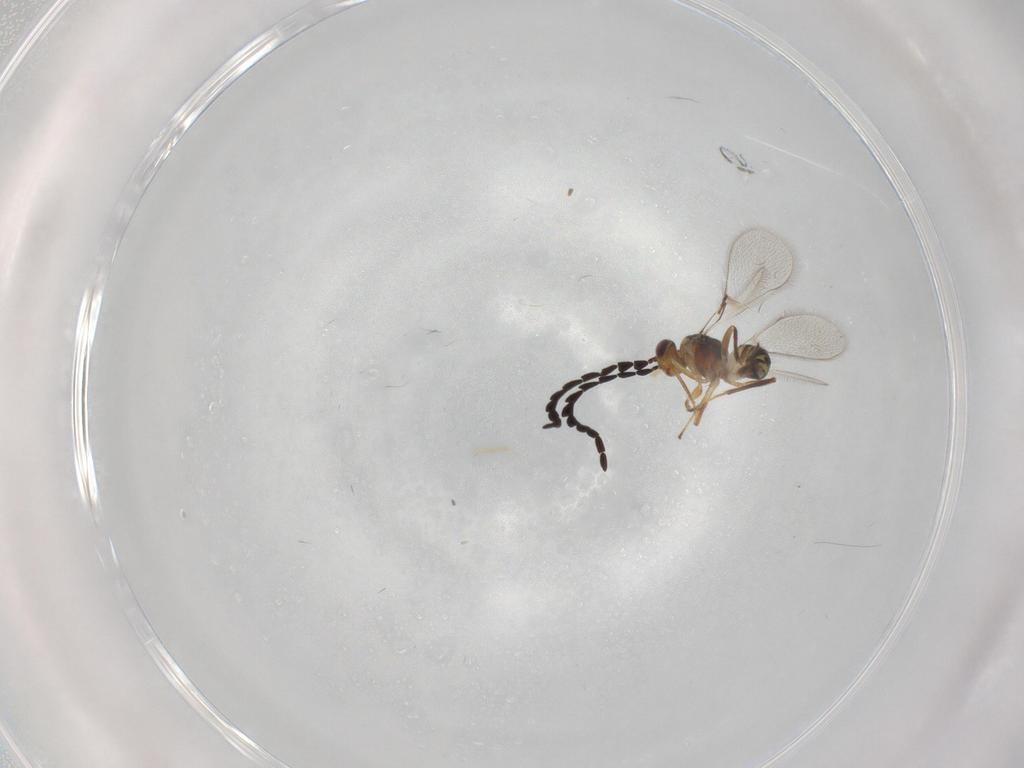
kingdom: Animalia
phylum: Arthropoda
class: Insecta
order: Hymenoptera
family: Mymaridae
